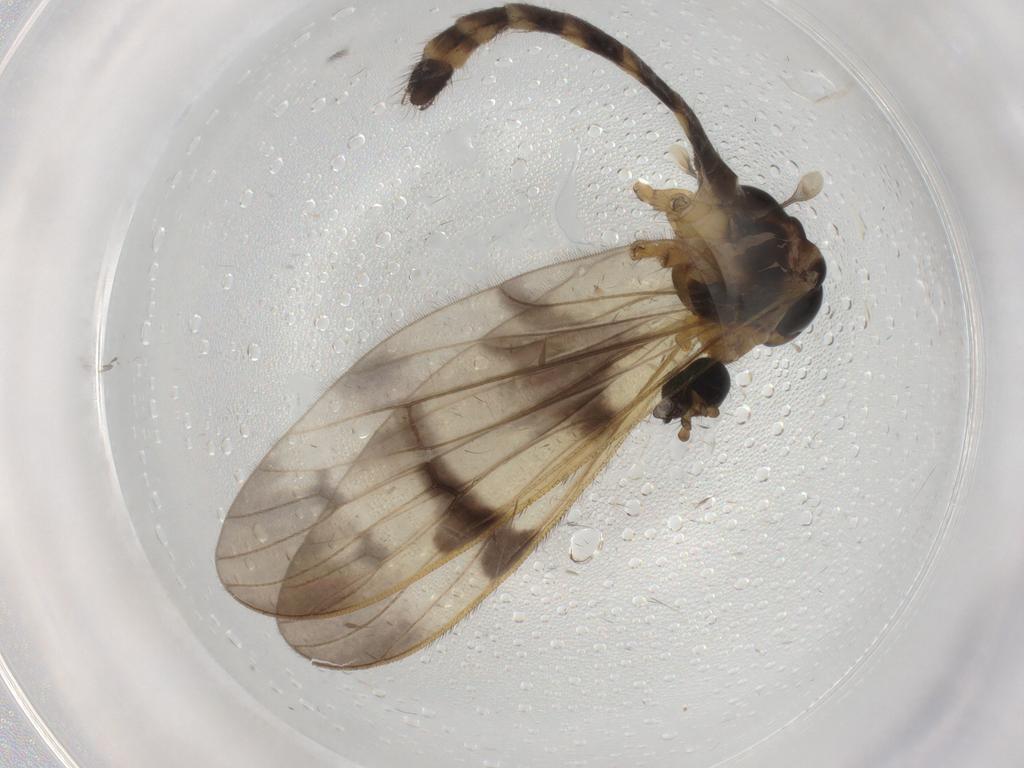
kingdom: Animalia
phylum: Arthropoda
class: Insecta
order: Diptera
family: Limoniidae
